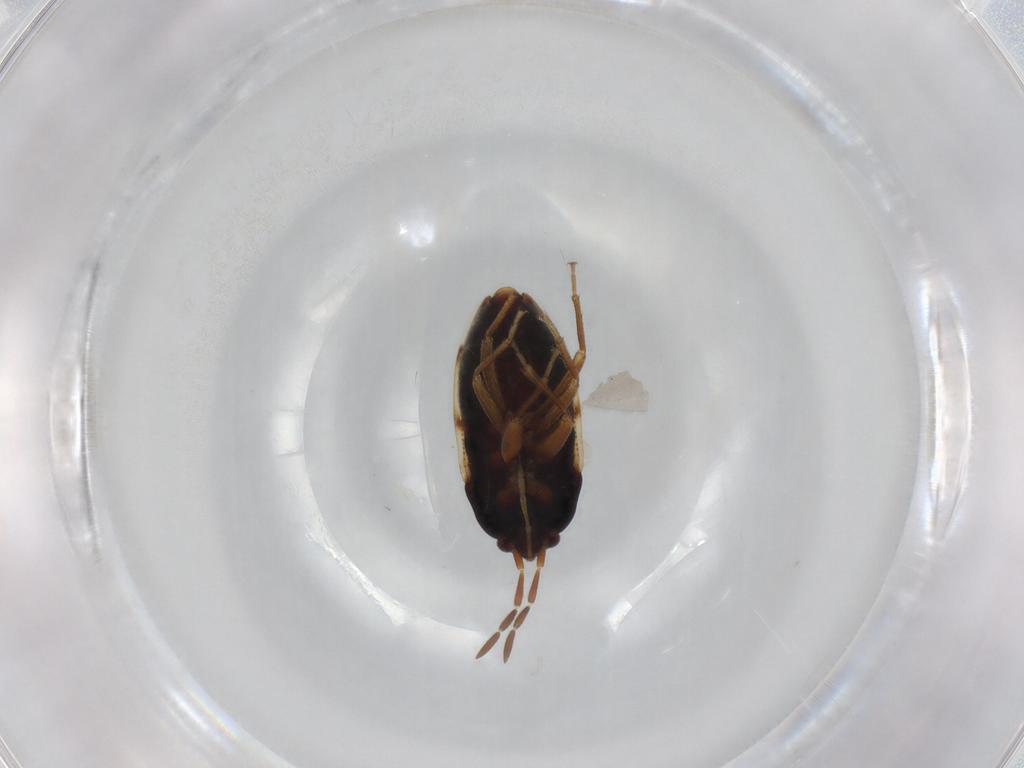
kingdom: Animalia
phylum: Arthropoda
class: Insecta
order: Hemiptera
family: Rhyparochromidae
